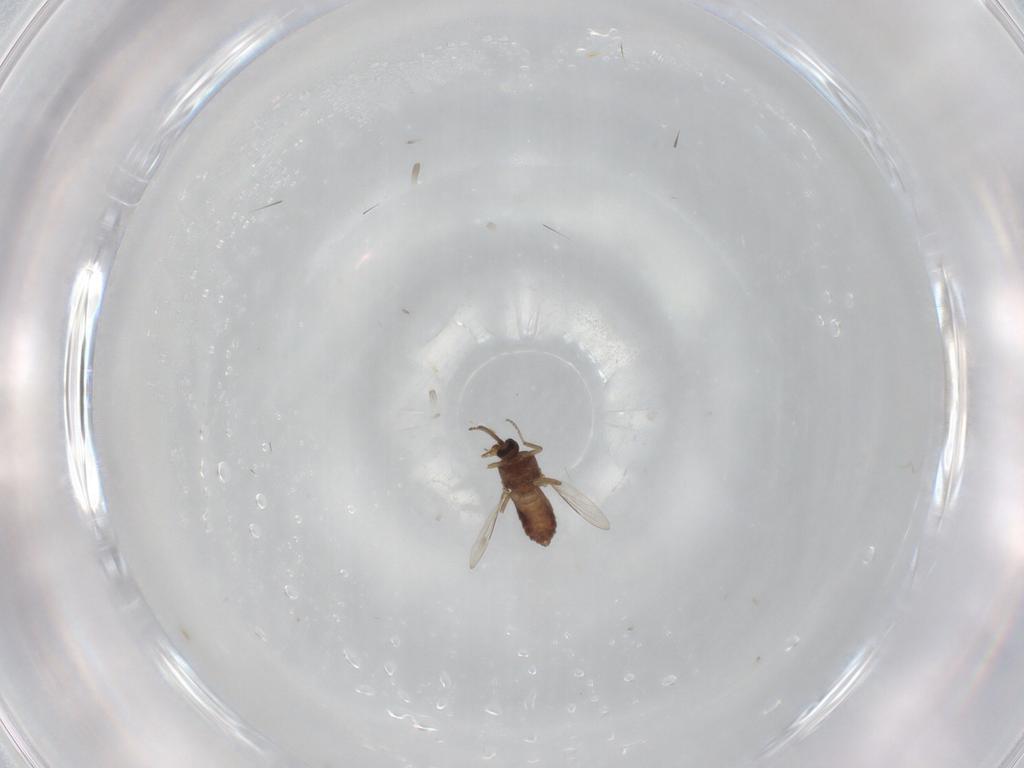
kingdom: Animalia
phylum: Arthropoda
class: Insecta
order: Diptera
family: Ceratopogonidae
